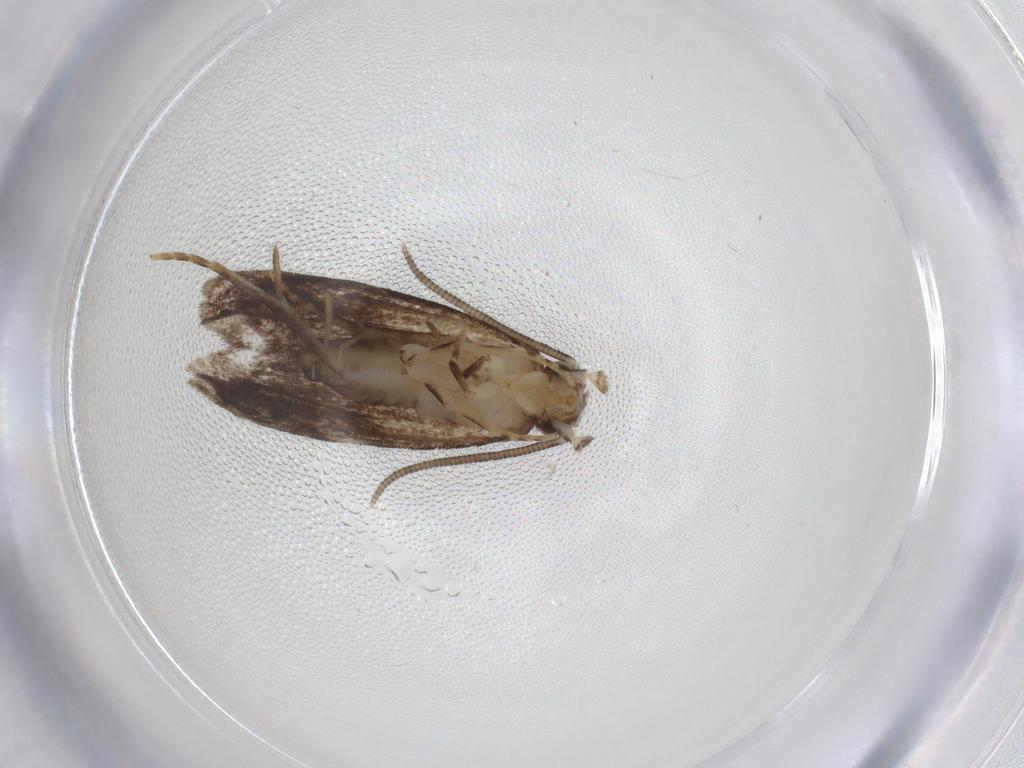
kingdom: Animalia
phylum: Arthropoda
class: Insecta
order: Lepidoptera
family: Dryadaulidae
